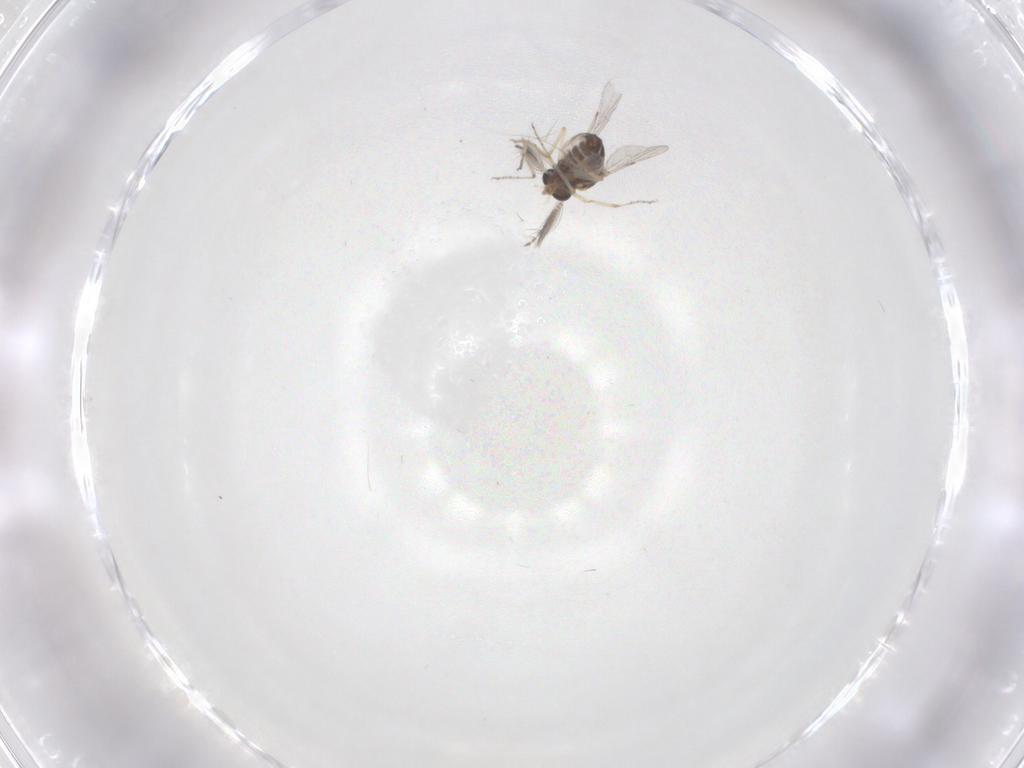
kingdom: Animalia
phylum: Arthropoda
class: Insecta
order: Diptera
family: Ceratopogonidae
